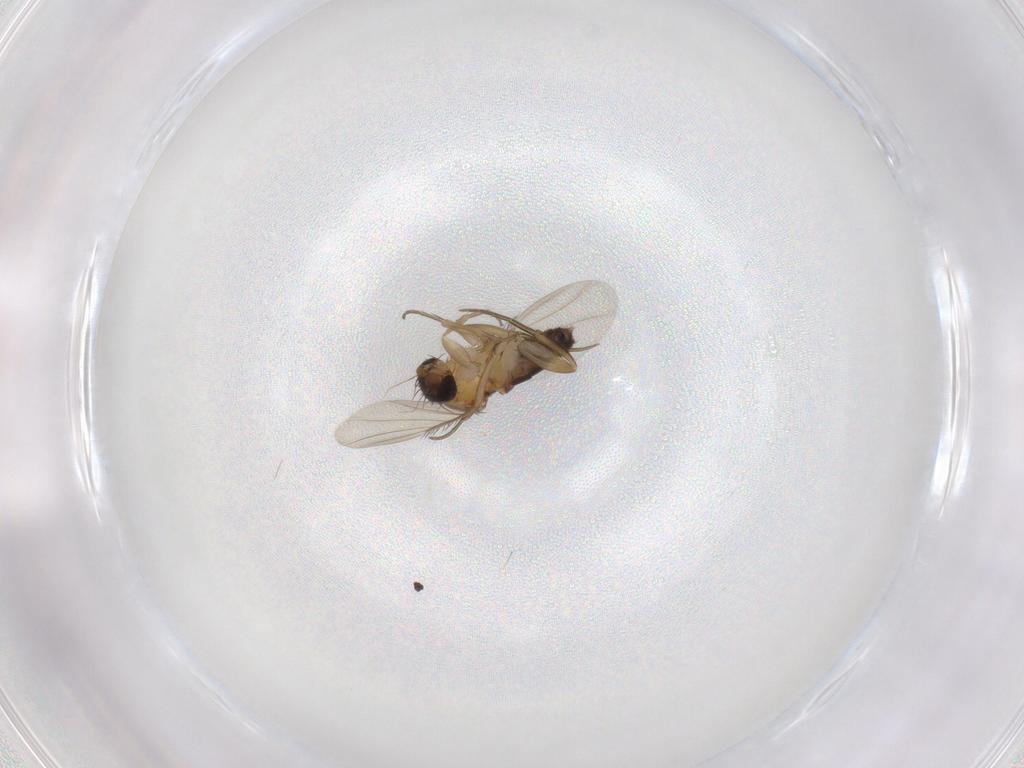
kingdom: Animalia
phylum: Arthropoda
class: Insecta
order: Diptera
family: Phoridae
